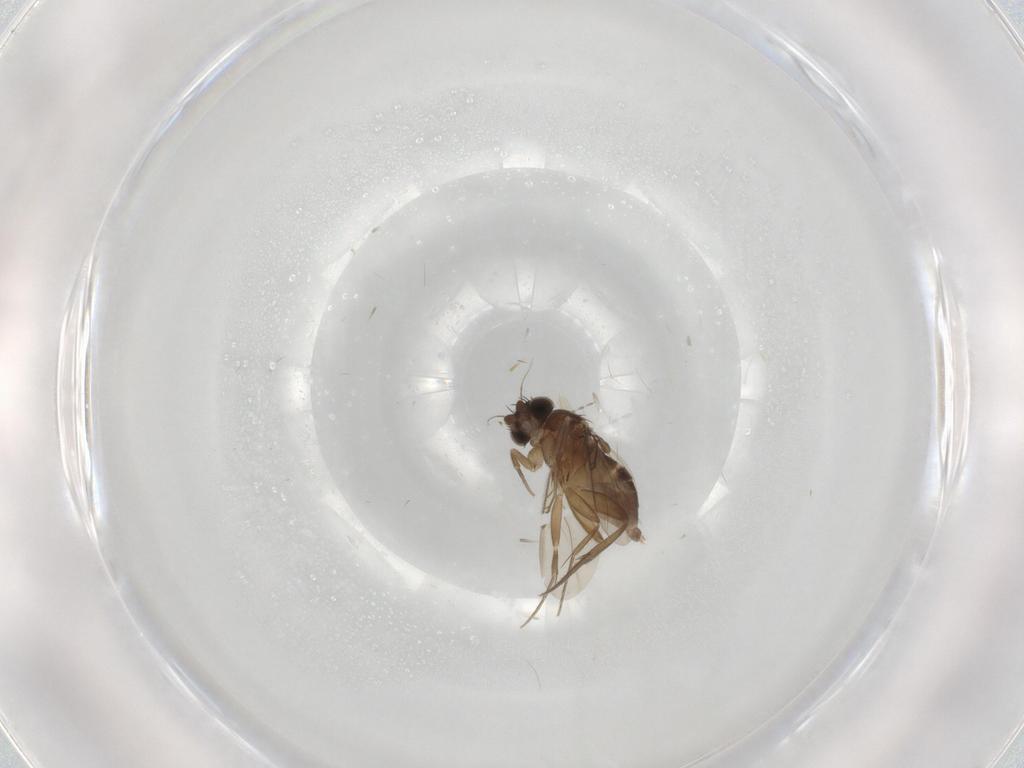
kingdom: Animalia
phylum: Arthropoda
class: Insecta
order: Diptera
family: Phoridae
